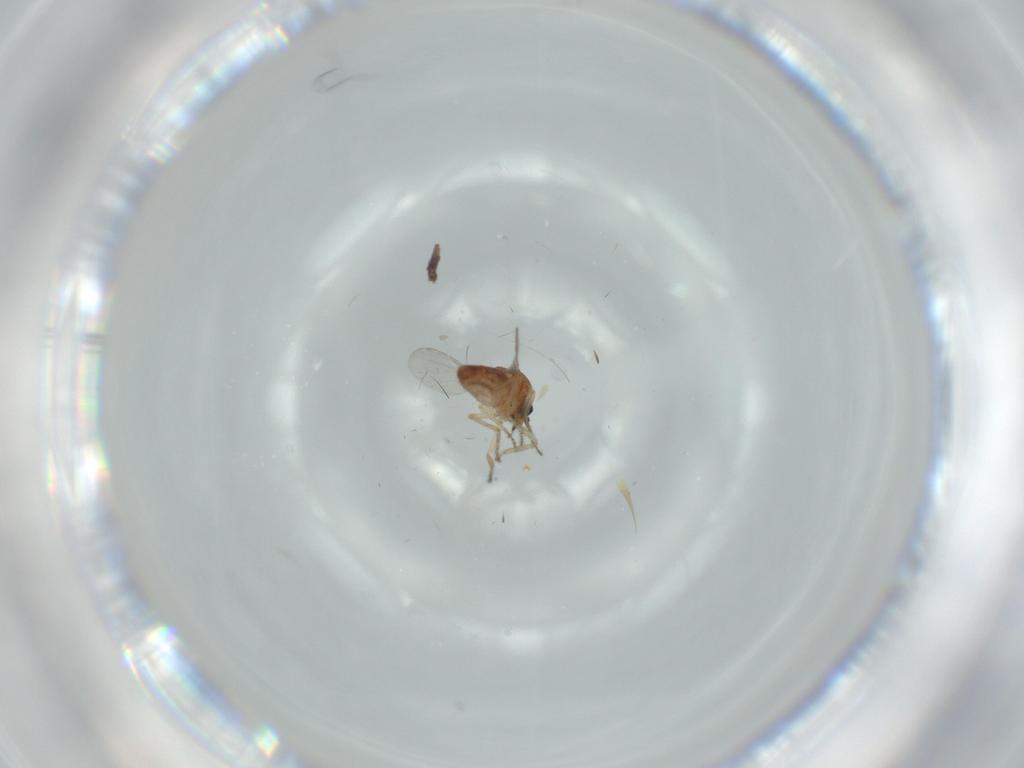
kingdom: Animalia
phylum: Arthropoda
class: Insecta
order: Diptera
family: Ceratopogonidae
